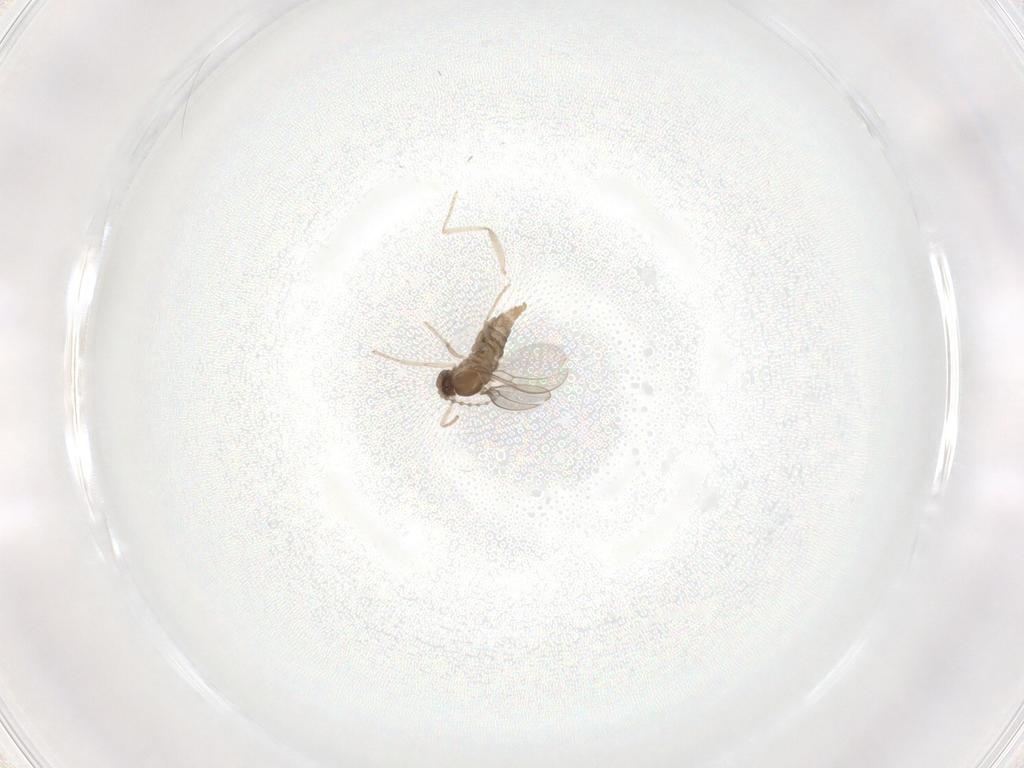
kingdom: Animalia
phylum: Arthropoda
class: Insecta
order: Diptera
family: Cecidomyiidae
